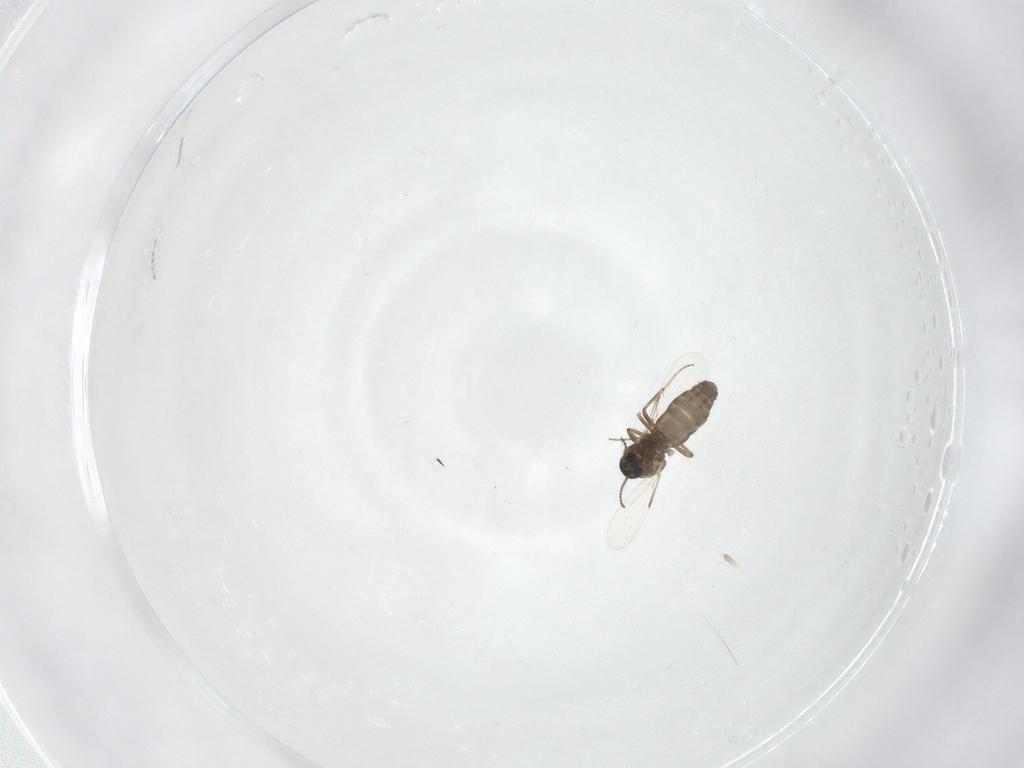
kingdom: Animalia
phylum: Arthropoda
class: Insecta
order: Diptera
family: Ceratopogonidae
